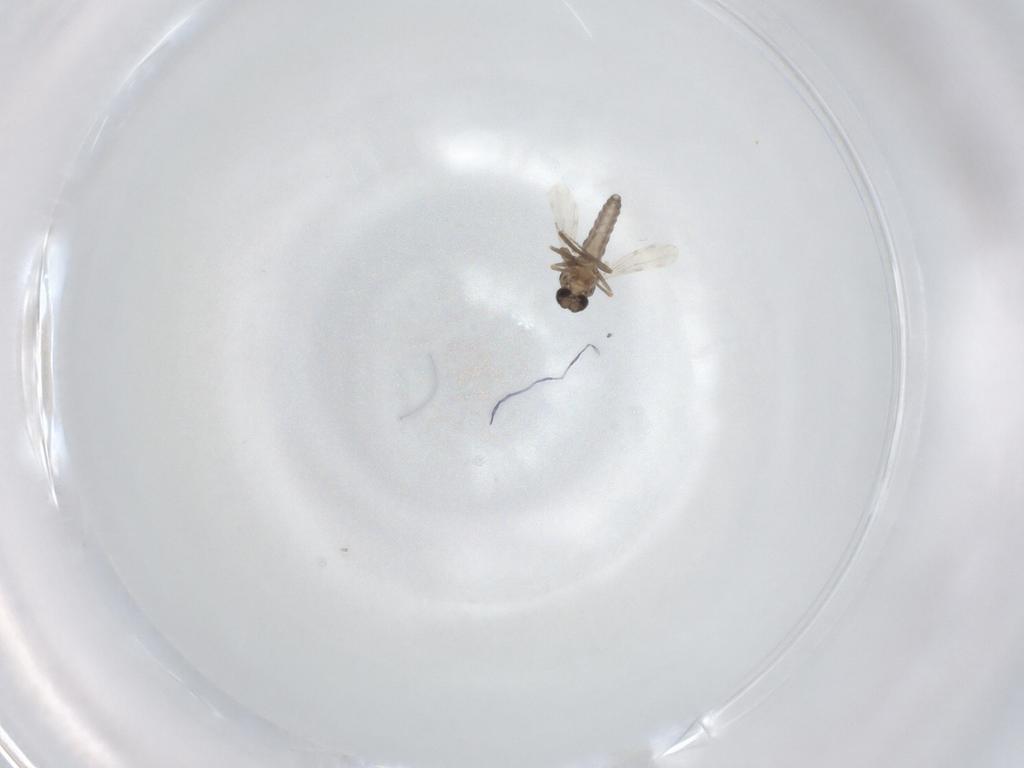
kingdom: Animalia
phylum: Arthropoda
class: Insecta
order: Diptera
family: Ceratopogonidae
